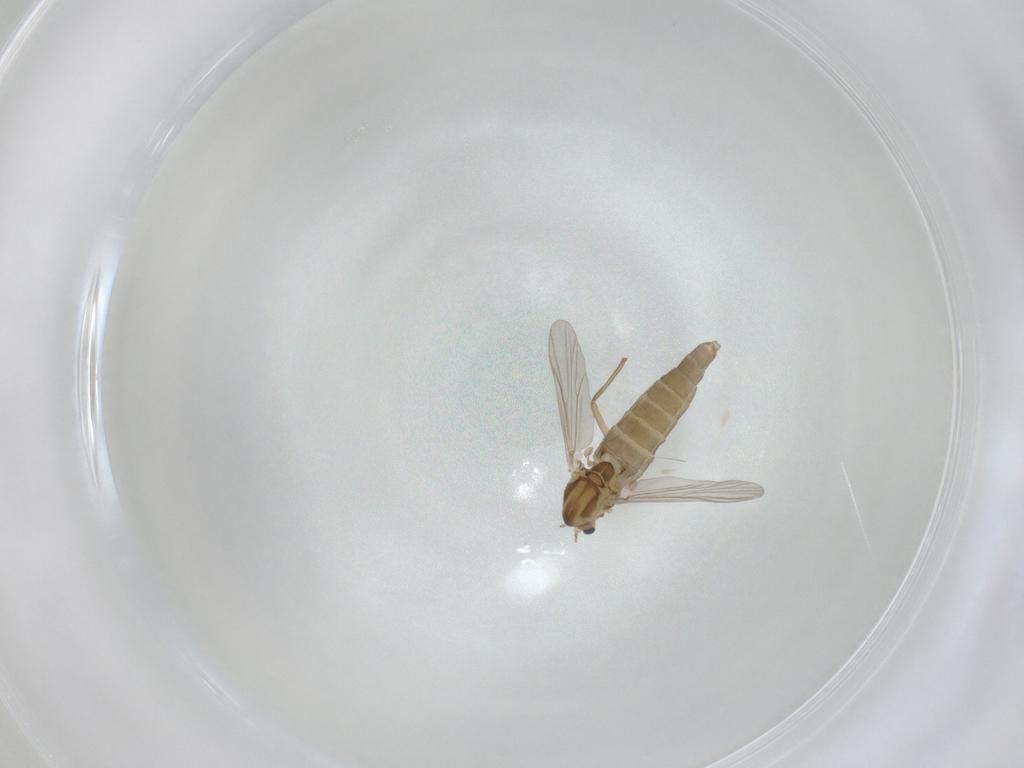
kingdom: Animalia
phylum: Arthropoda
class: Insecta
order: Diptera
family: Chironomidae
